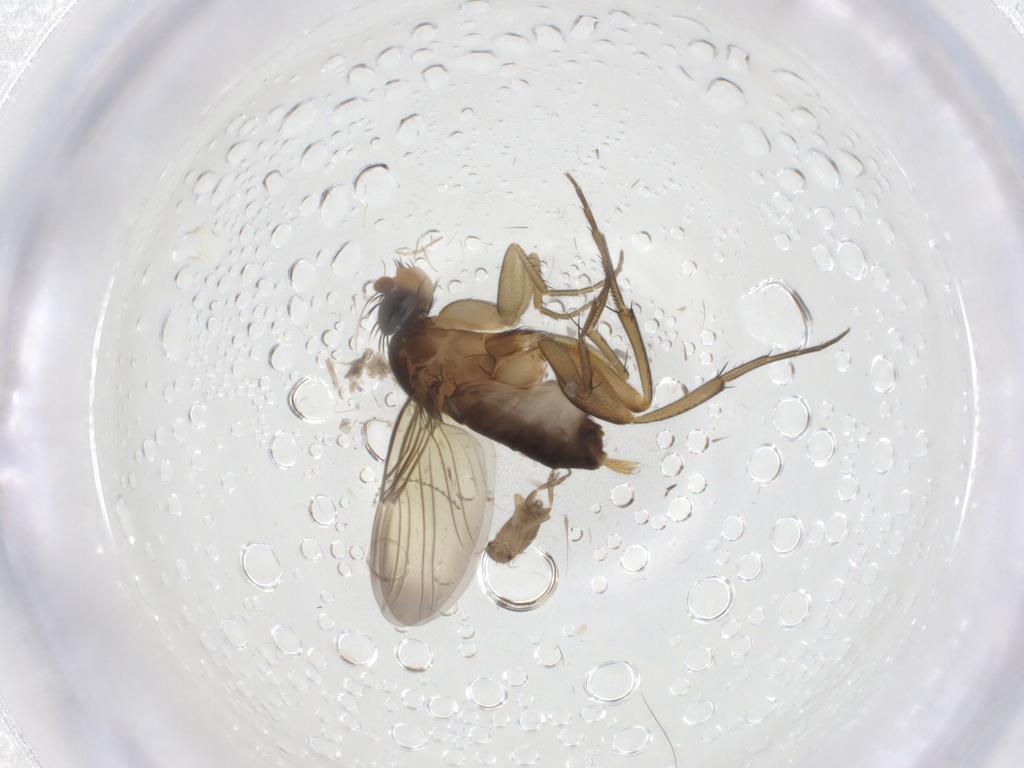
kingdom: Animalia
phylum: Arthropoda
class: Insecta
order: Diptera
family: Phoridae
